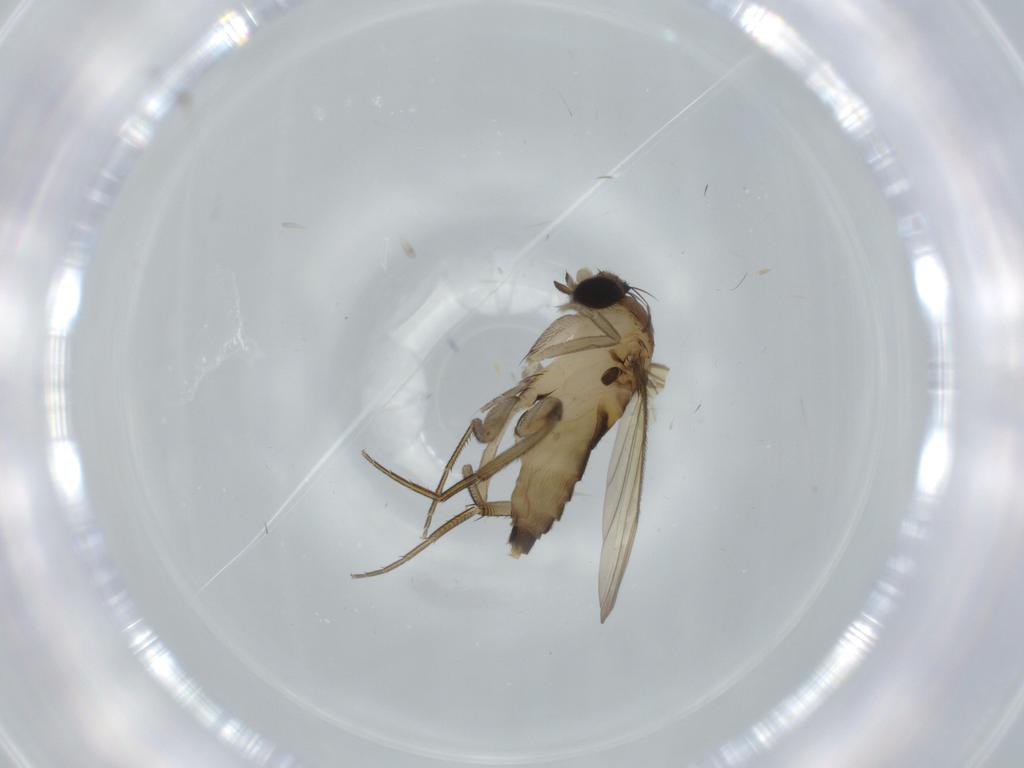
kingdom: Animalia
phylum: Arthropoda
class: Insecta
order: Diptera
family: Cecidomyiidae
